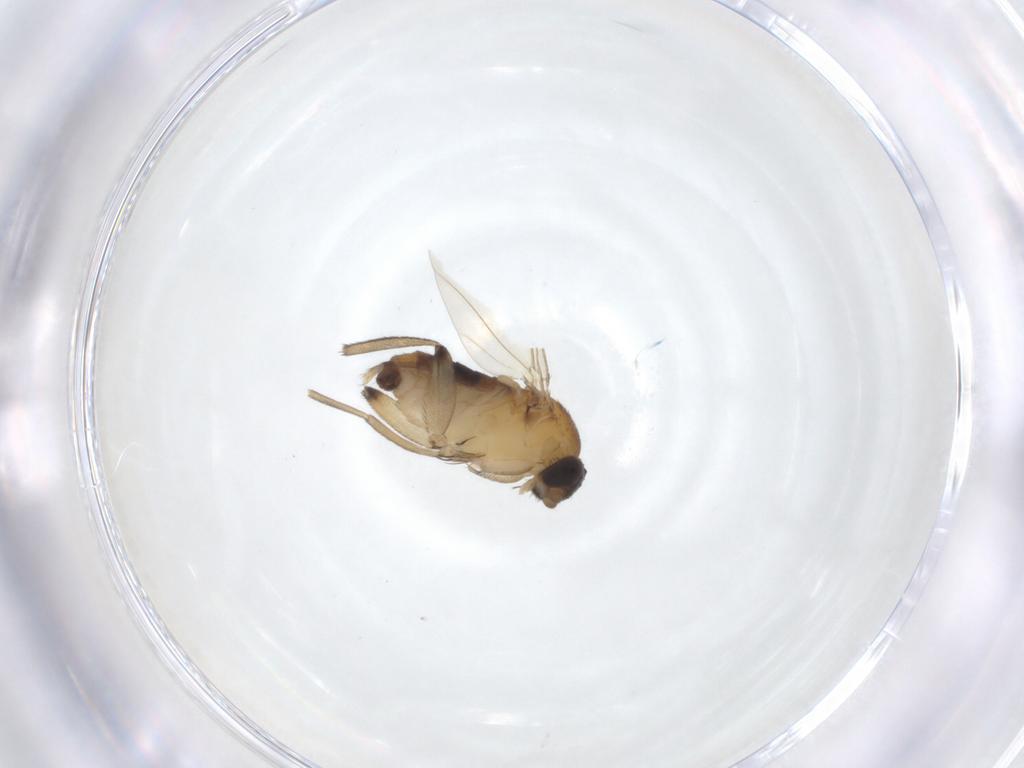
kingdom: Animalia
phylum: Arthropoda
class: Insecta
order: Diptera
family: Phoridae
